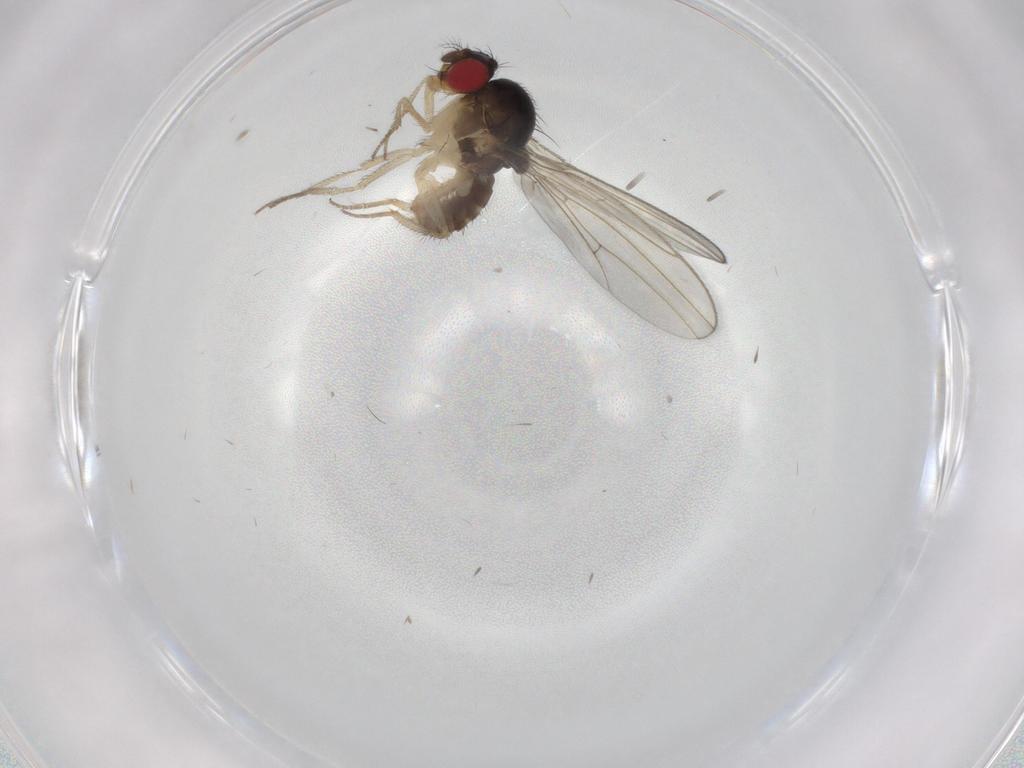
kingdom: Animalia
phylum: Arthropoda
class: Insecta
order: Diptera
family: Drosophilidae
